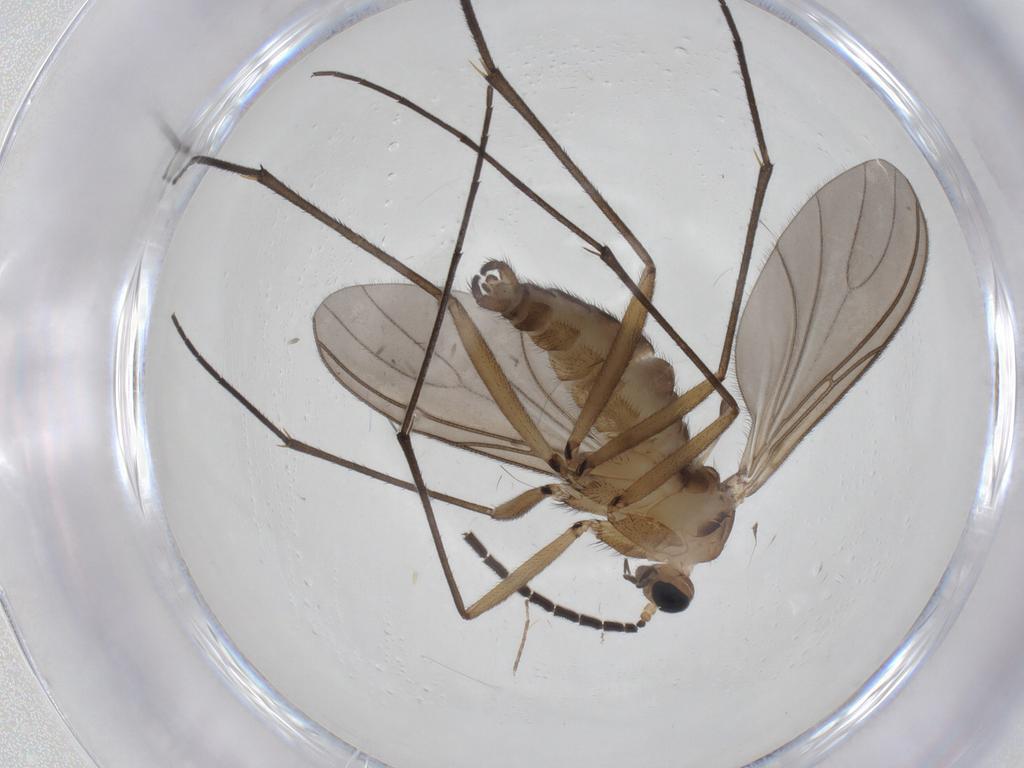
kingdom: Animalia
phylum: Arthropoda
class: Insecta
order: Diptera
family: Sciaridae
